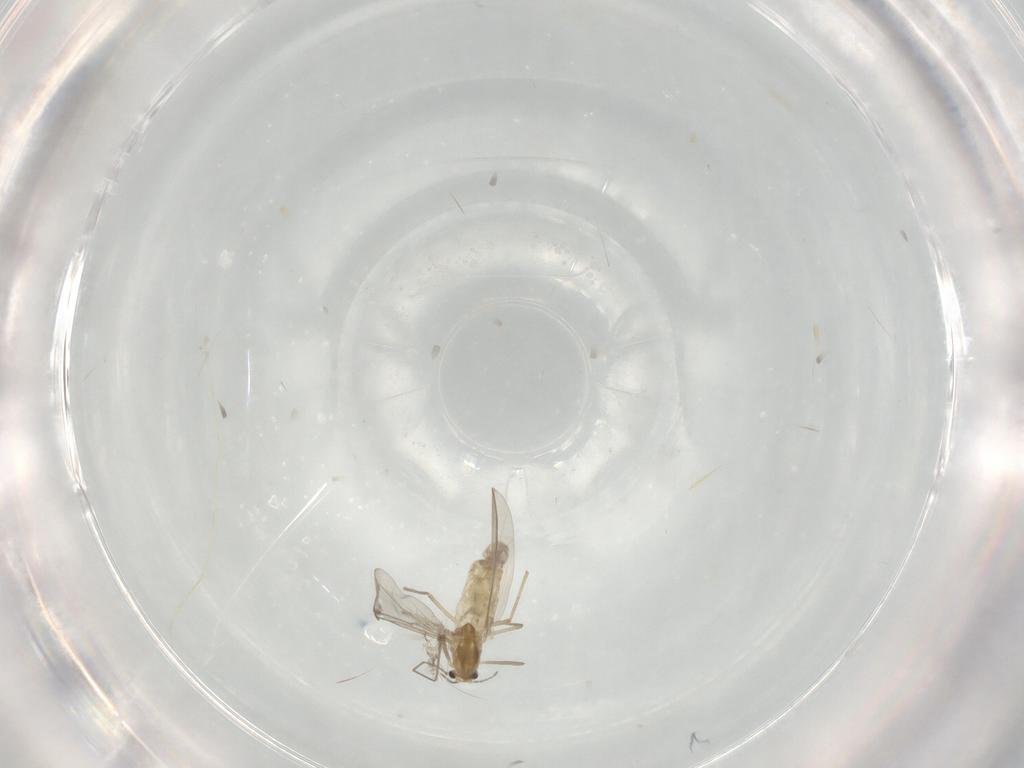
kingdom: Animalia
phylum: Arthropoda
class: Insecta
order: Diptera
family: Chironomidae
